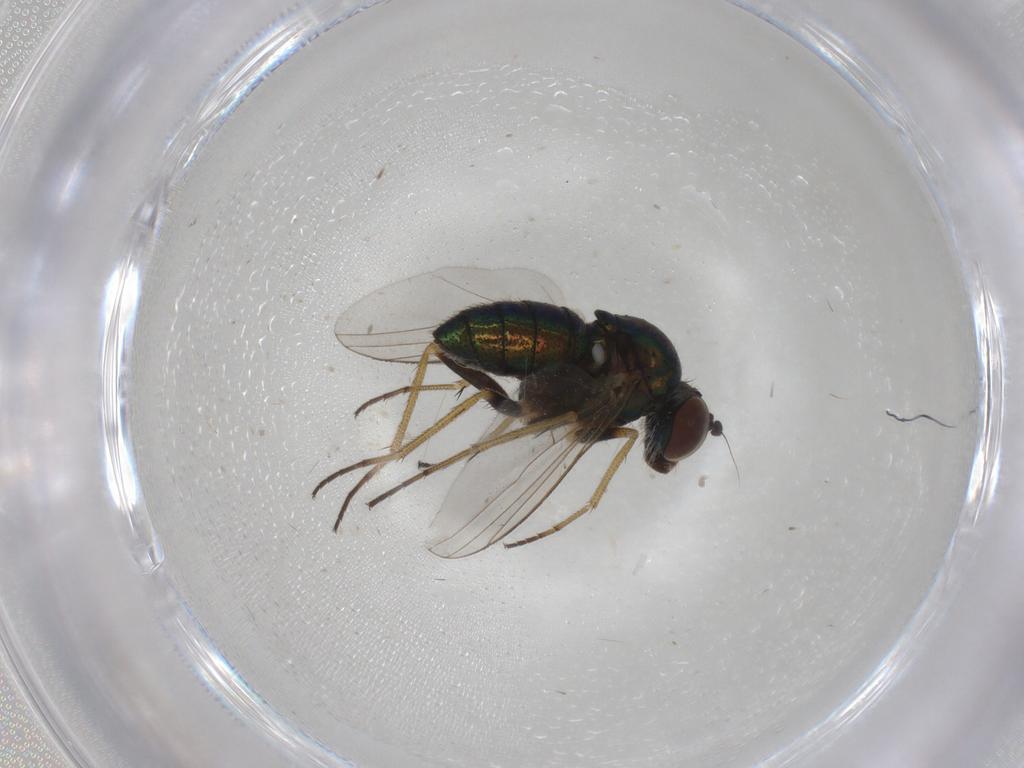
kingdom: Animalia
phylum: Arthropoda
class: Insecta
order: Diptera
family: Dolichopodidae
